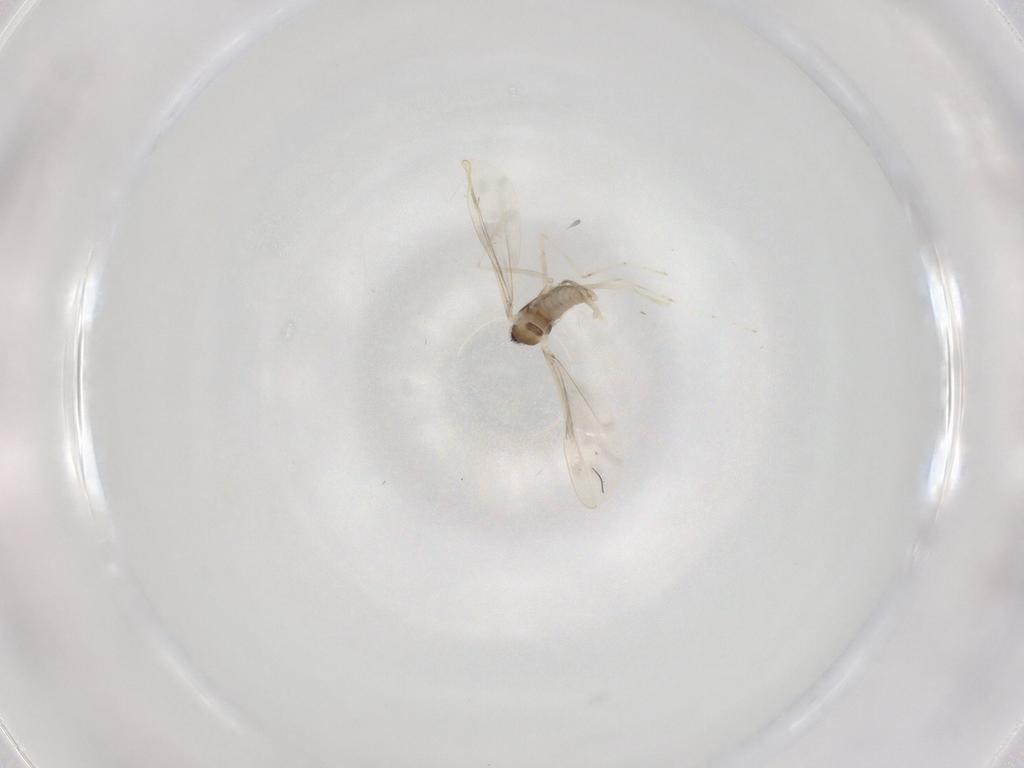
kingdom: Animalia
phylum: Arthropoda
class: Insecta
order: Diptera
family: Cecidomyiidae
